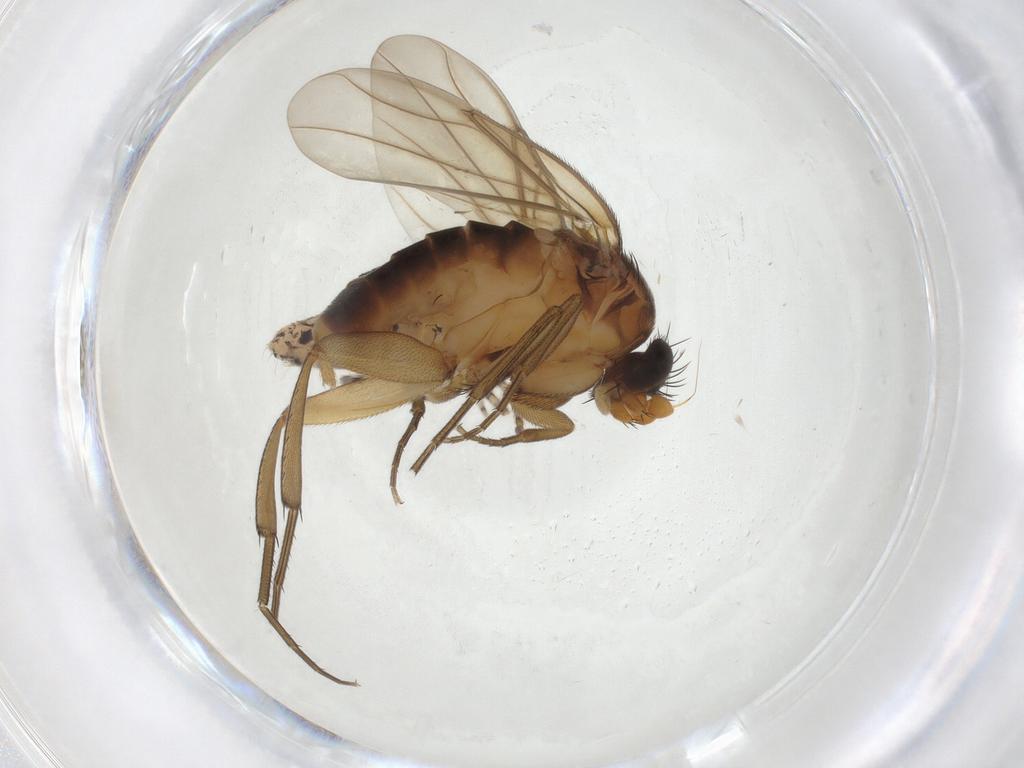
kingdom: Animalia
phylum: Arthropoda
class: Insecta
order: Diptera
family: Phoridae
